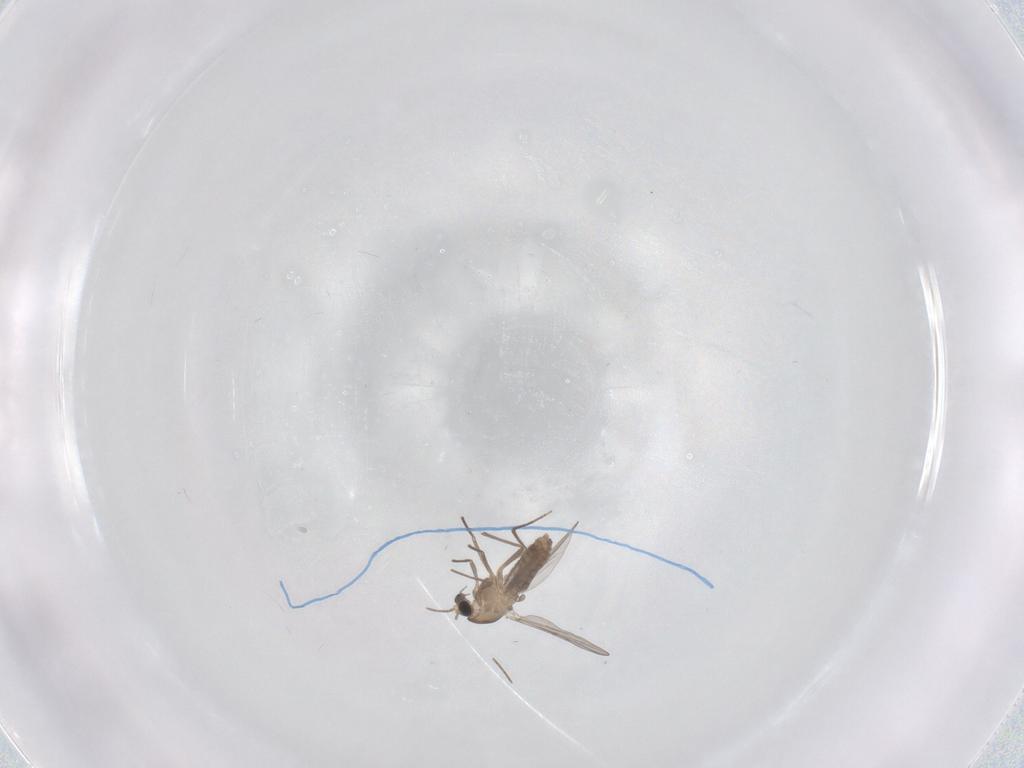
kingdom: Animalia
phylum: Arthropoda
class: Insecta
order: Diptera
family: Chironomidae
